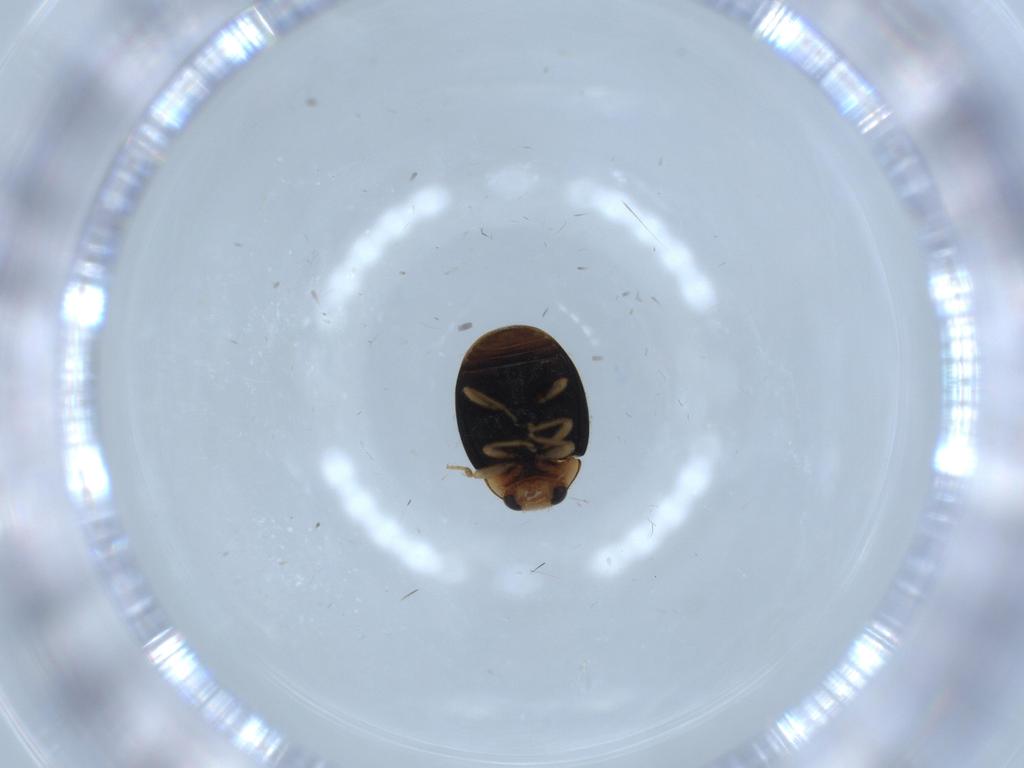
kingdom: Animalia
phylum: Arthropoda
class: Insecta
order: Coleoptera
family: Chrysomelidae
